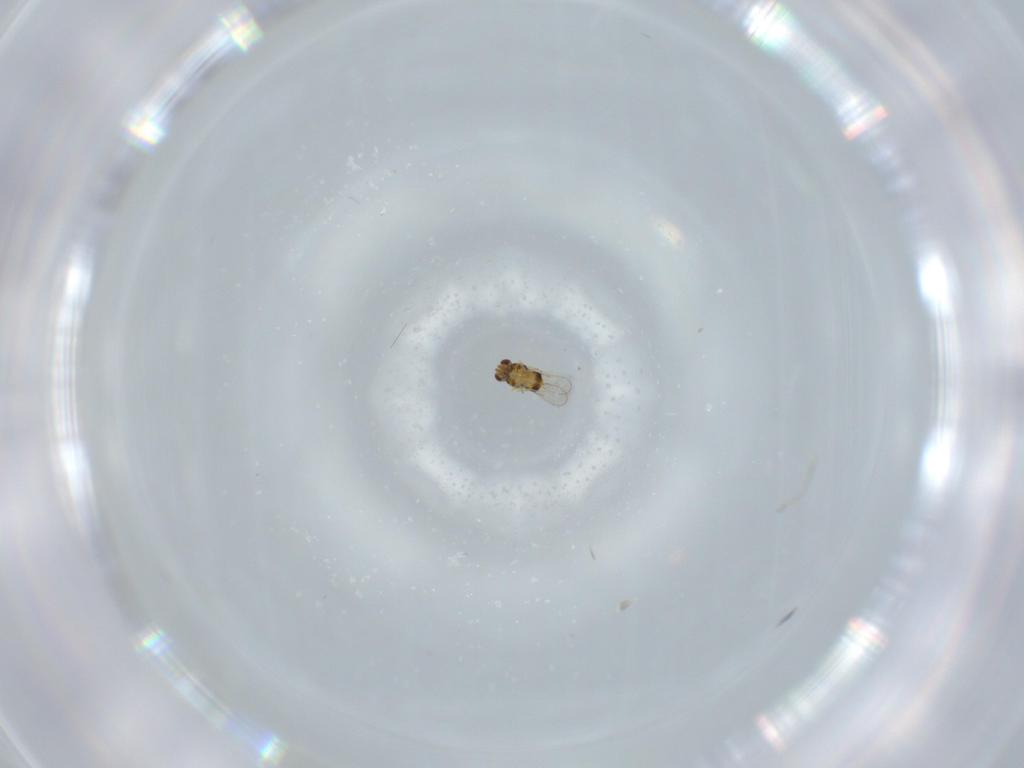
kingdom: Animalia
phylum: Arthropoda
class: Insecta
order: Hymenoptera
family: Aphelinidae
